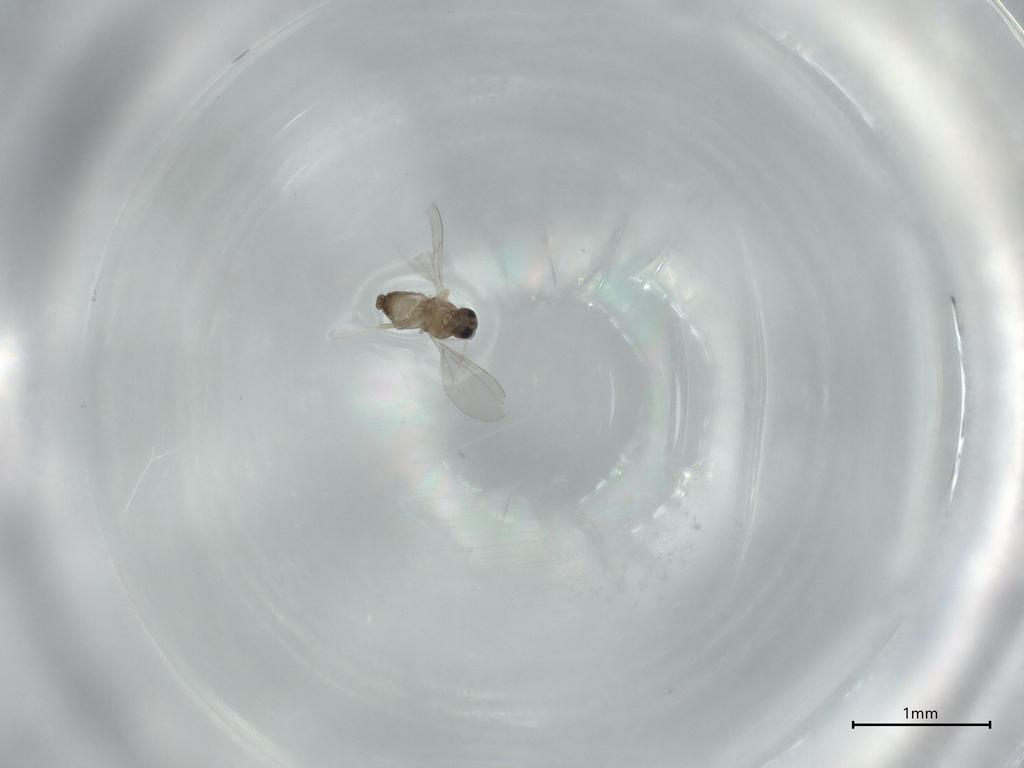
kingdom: Animalia
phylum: Arthropoda
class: Insecta
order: Diptera
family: Cecidomyiidae
